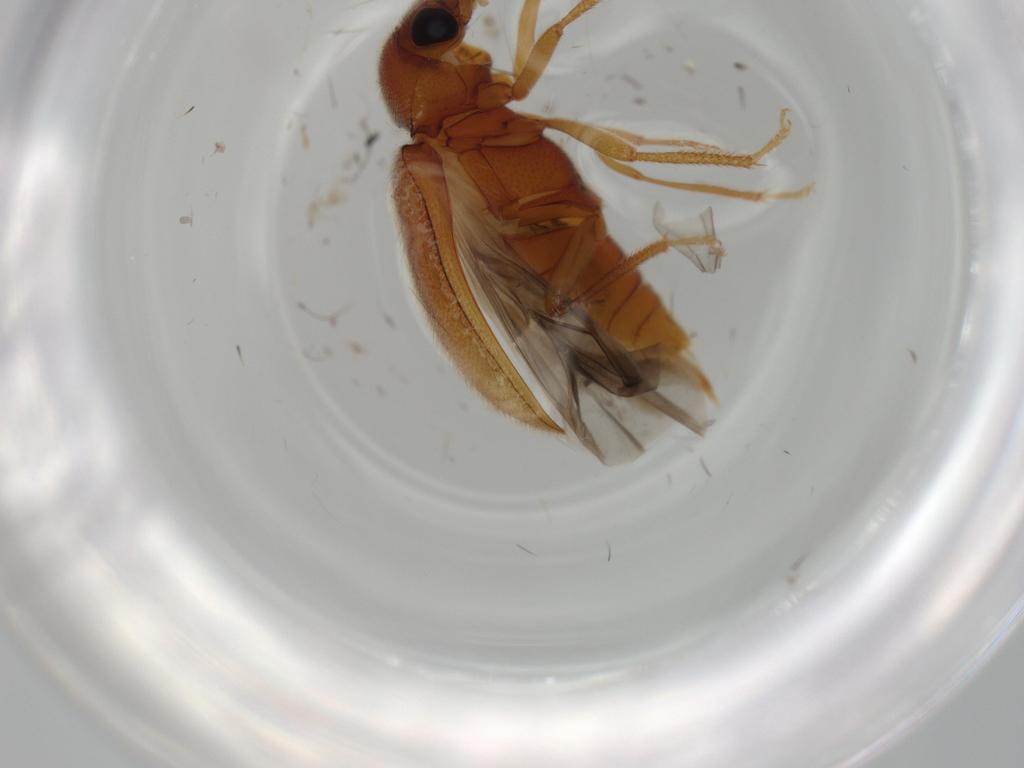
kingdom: Animalia
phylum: Arthropoda
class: Insecta
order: Coleoptera
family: Ptilodactylidae
